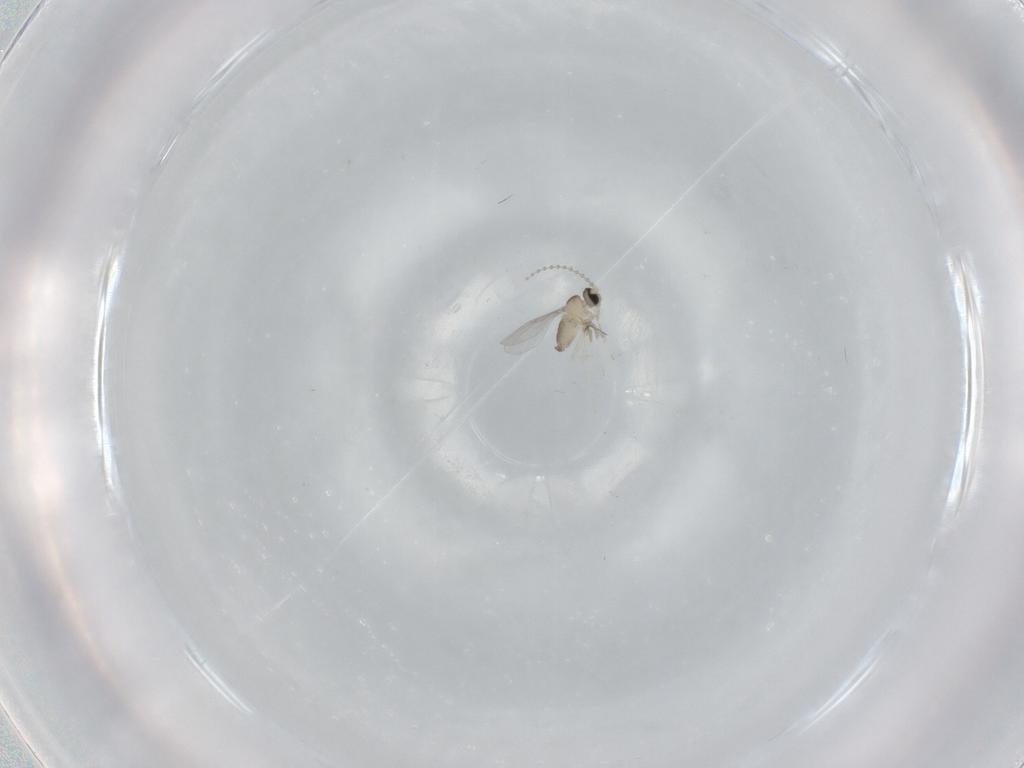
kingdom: Animalia
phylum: Arthropoda
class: Insecta
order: Diptera
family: Cecidomyiidae
